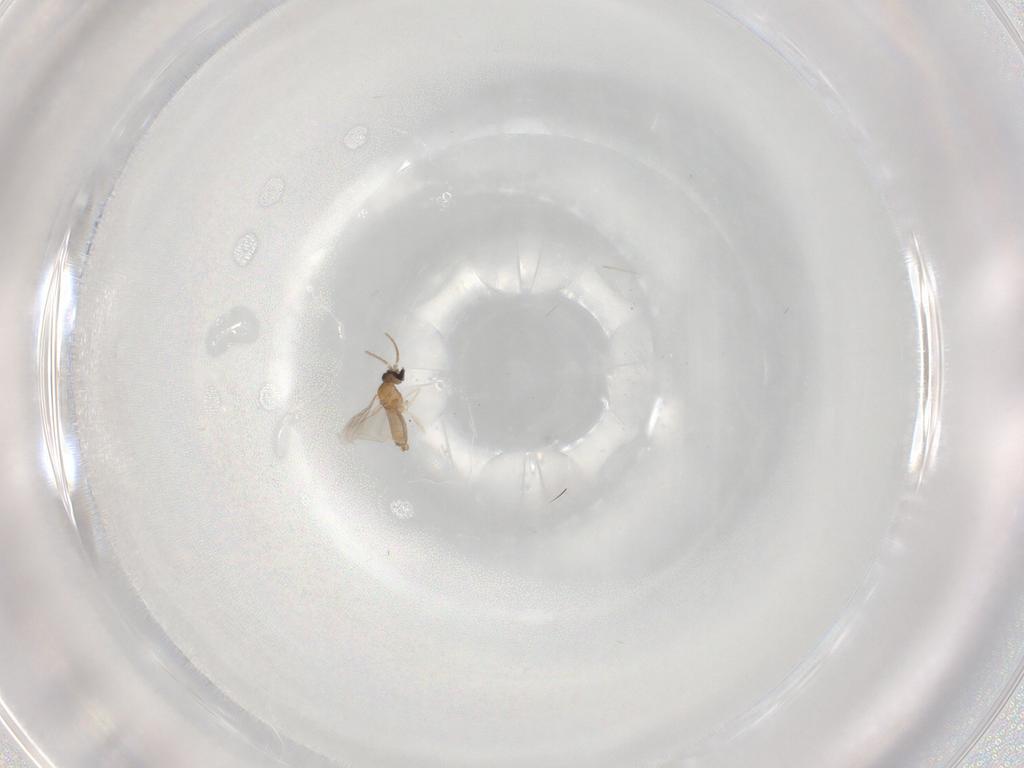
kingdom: Animalia
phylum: Arthropoda
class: Insecta
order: Diptera
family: Cecidomyiidae
